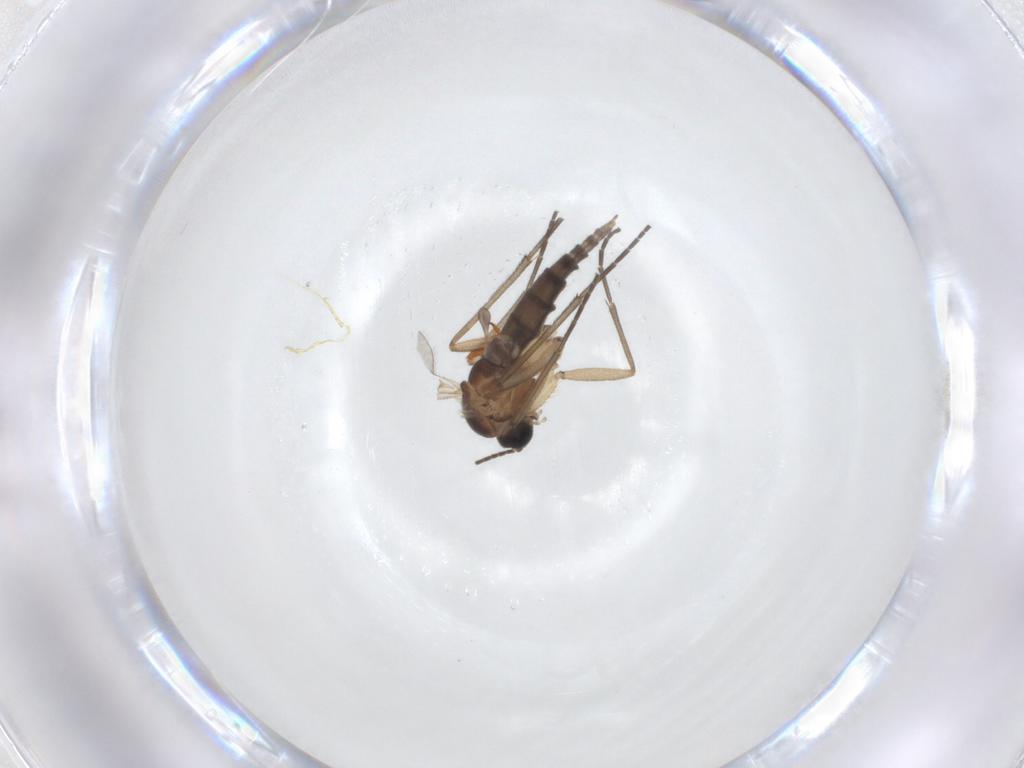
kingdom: Animalia
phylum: Arthropoda
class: Insecta
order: Diptera
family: Sciaridae
